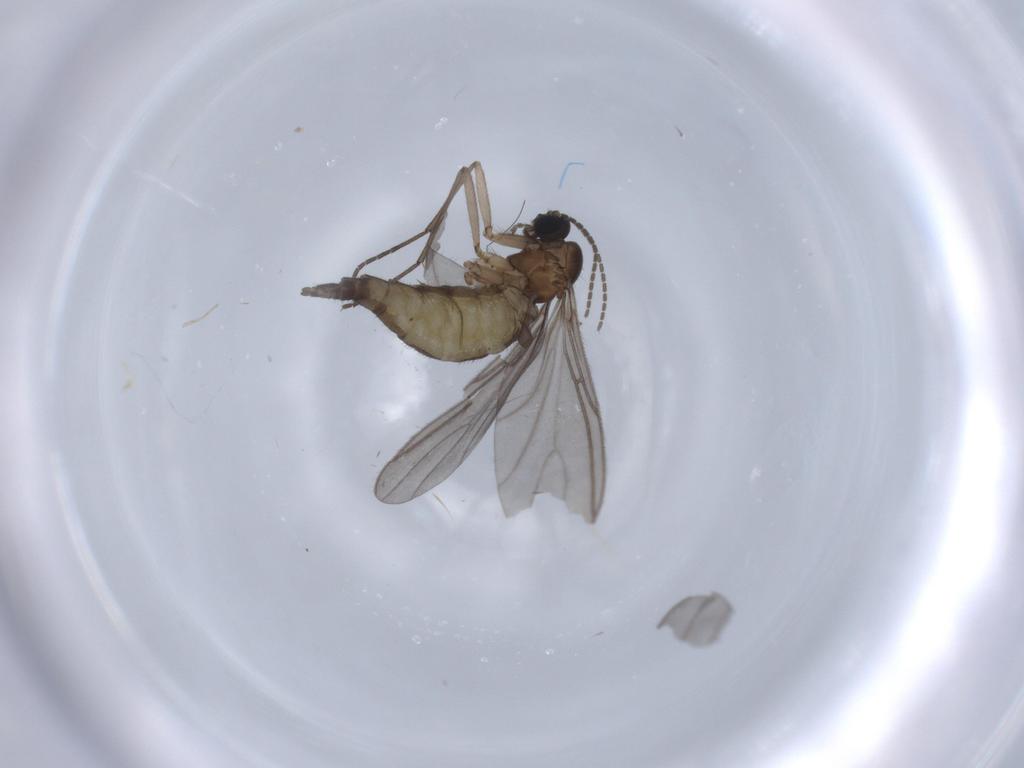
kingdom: Animalia
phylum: Arthropoda
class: Insecta
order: Diptera
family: Sciaridae
